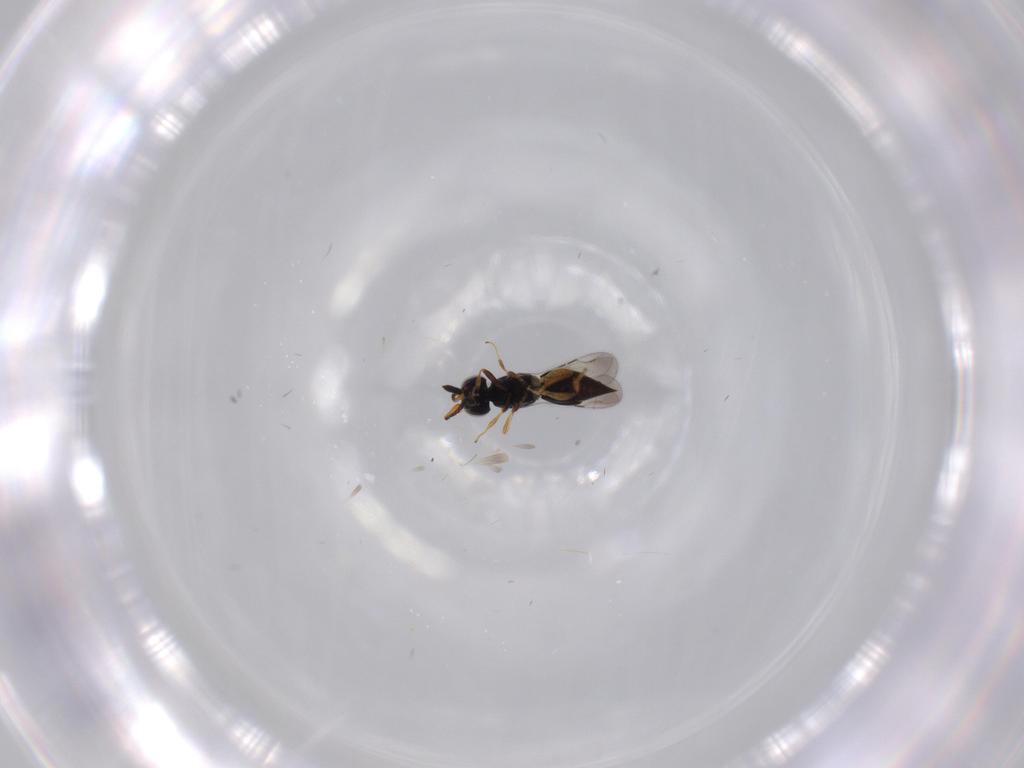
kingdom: Animalia
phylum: Arthropoda
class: Insecta
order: Hymenoptera
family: Ceraphronidae
